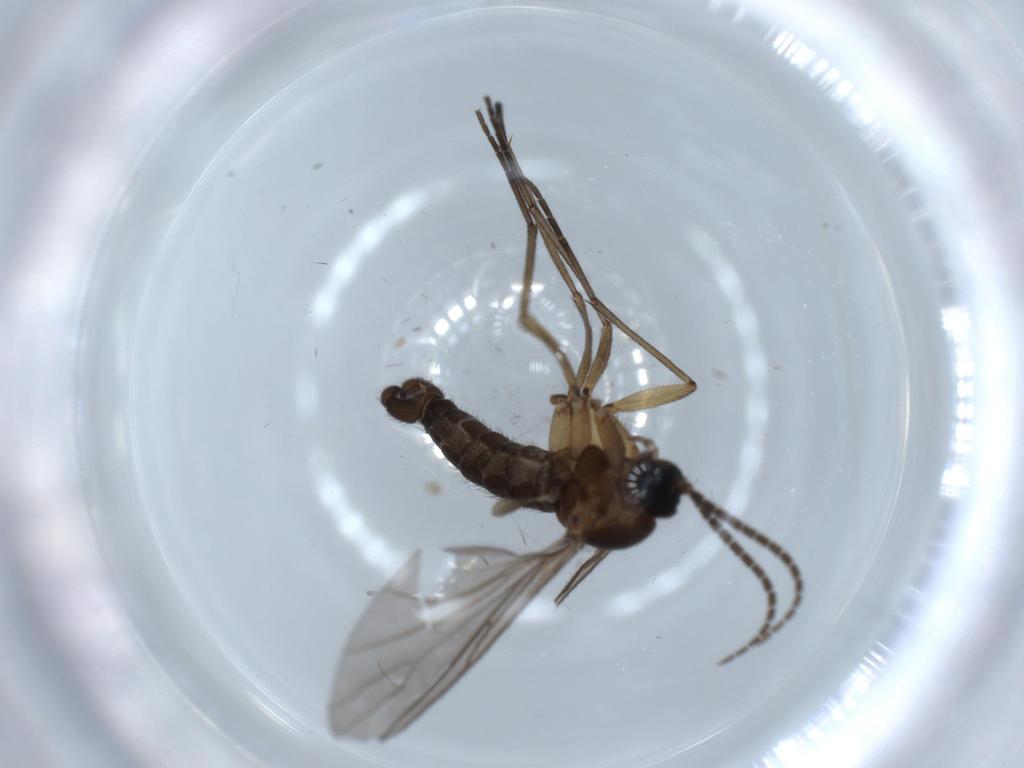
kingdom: Animalia
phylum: Arthropoda
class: Insecta
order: Diptera
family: Sciaridae
